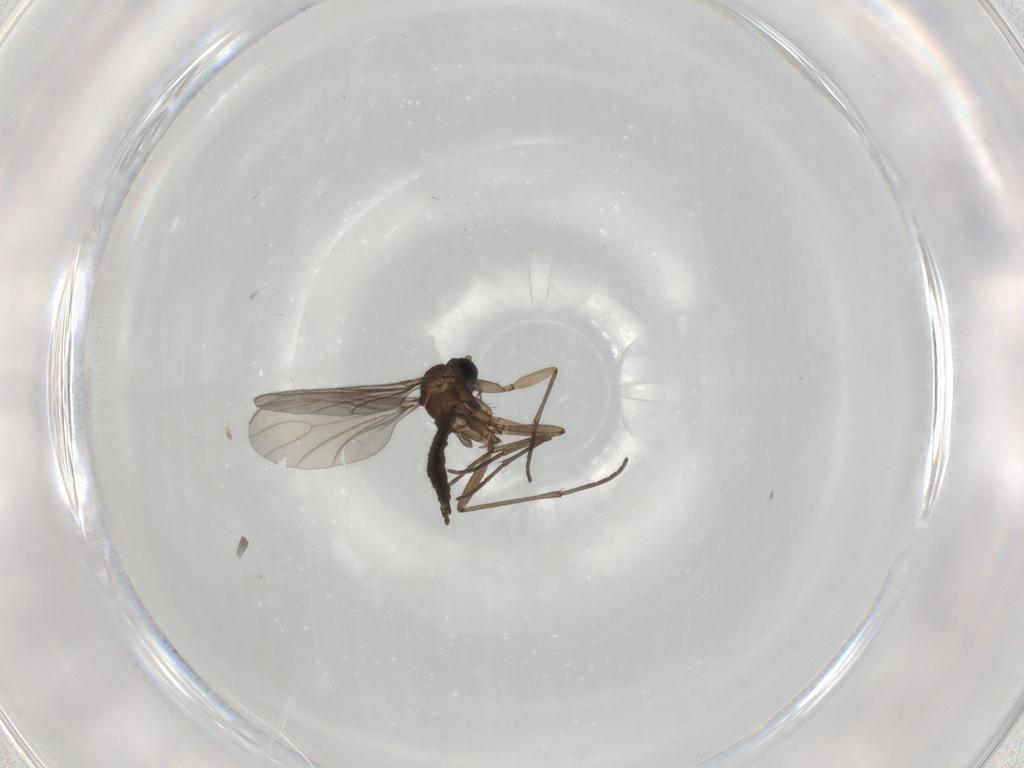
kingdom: Animalia
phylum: Arthropoda
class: Insecta
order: Diptera
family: Sciaridae
